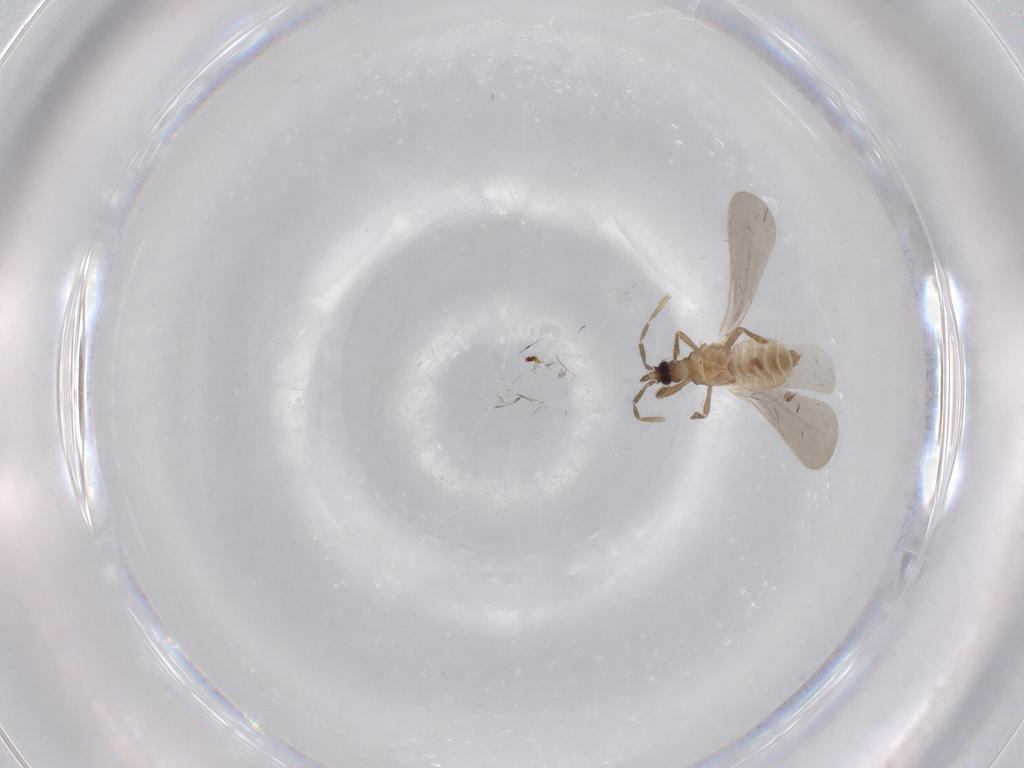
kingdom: Animalia
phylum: Arthropoda
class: Insecta
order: Hemiptera
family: Enicocephalidae
